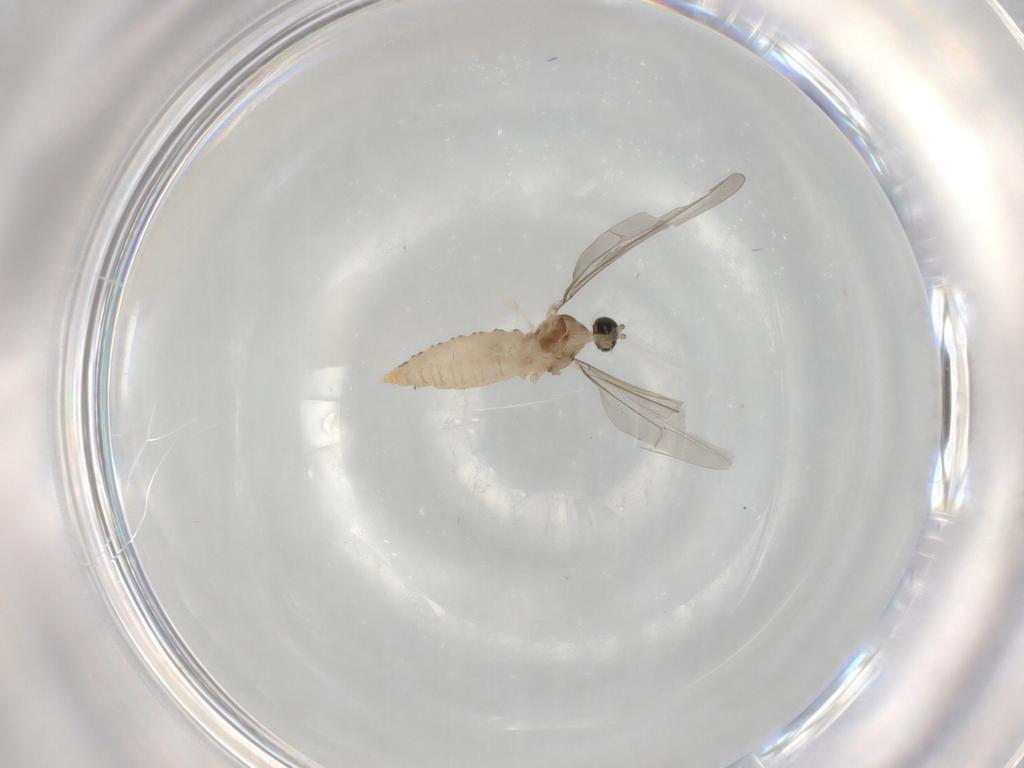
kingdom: Animalia
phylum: Arthropoda
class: Insecta
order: Diptera
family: Cecidomyiidae
